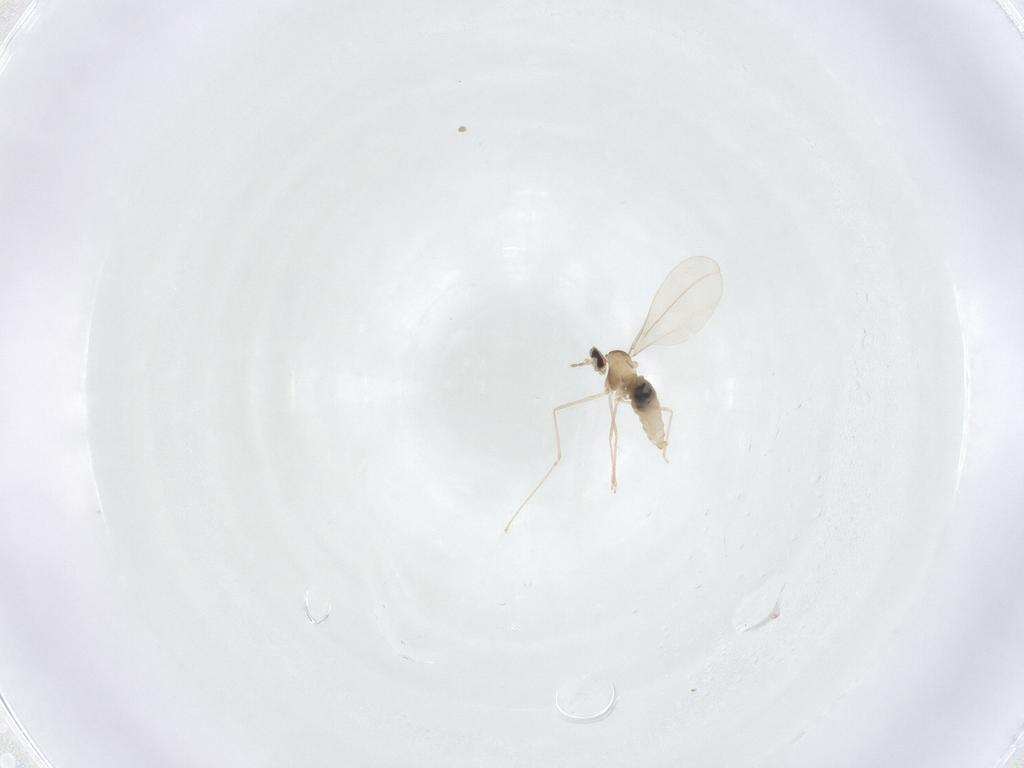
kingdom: Animalia
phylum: Arthropoda
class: Insecta
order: Diptera
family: Cecidomyiidae
